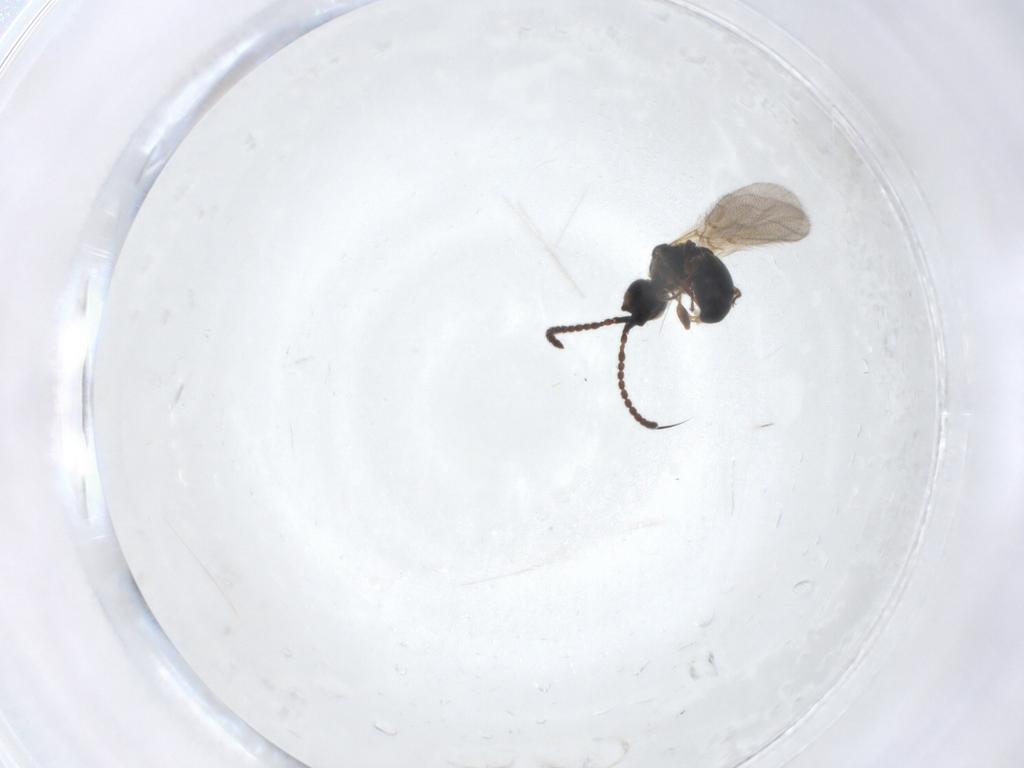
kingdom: Animalia
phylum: Arthropoda
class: Insecta
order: Hymenoptera
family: Diapriidae
